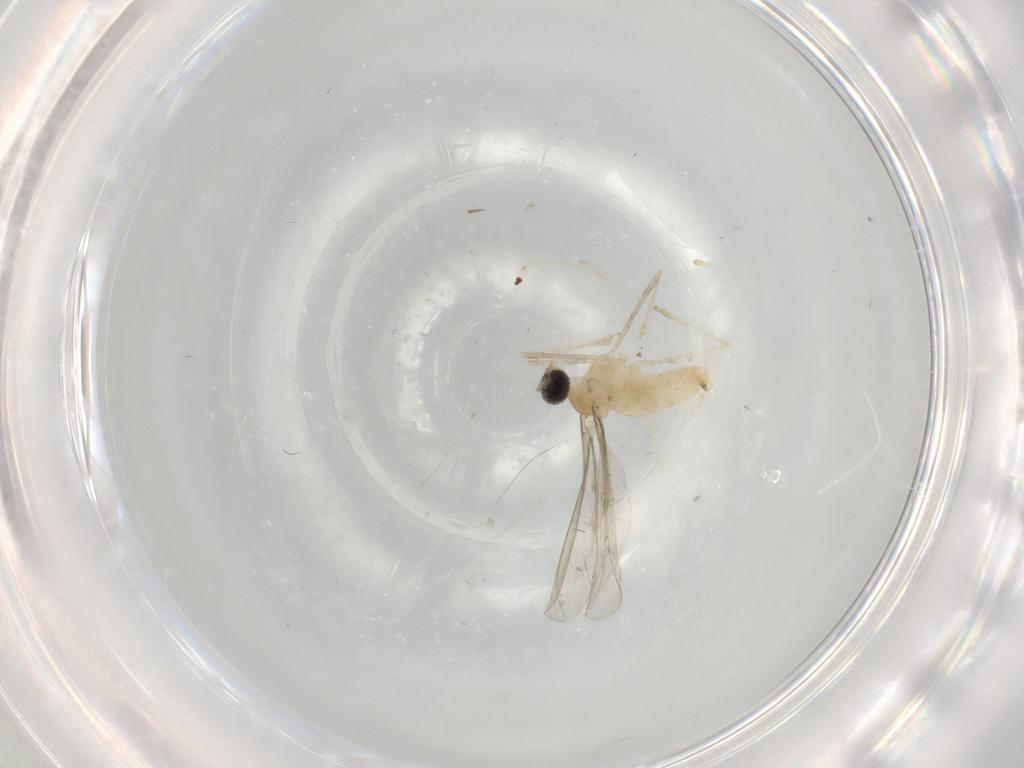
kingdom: Animalia
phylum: Arthropoda
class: Insecta
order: Diptera
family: Cecidomyiidae
